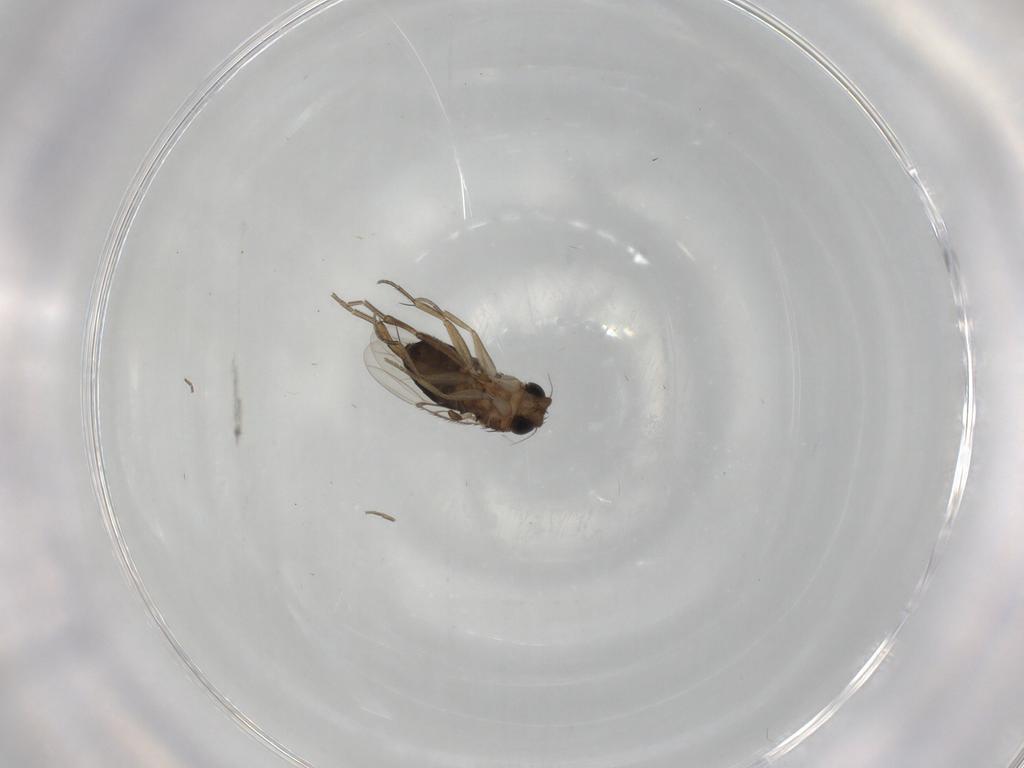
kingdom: Animalia
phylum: Arthropoda
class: Insecta
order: Diptera
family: Phoridae
